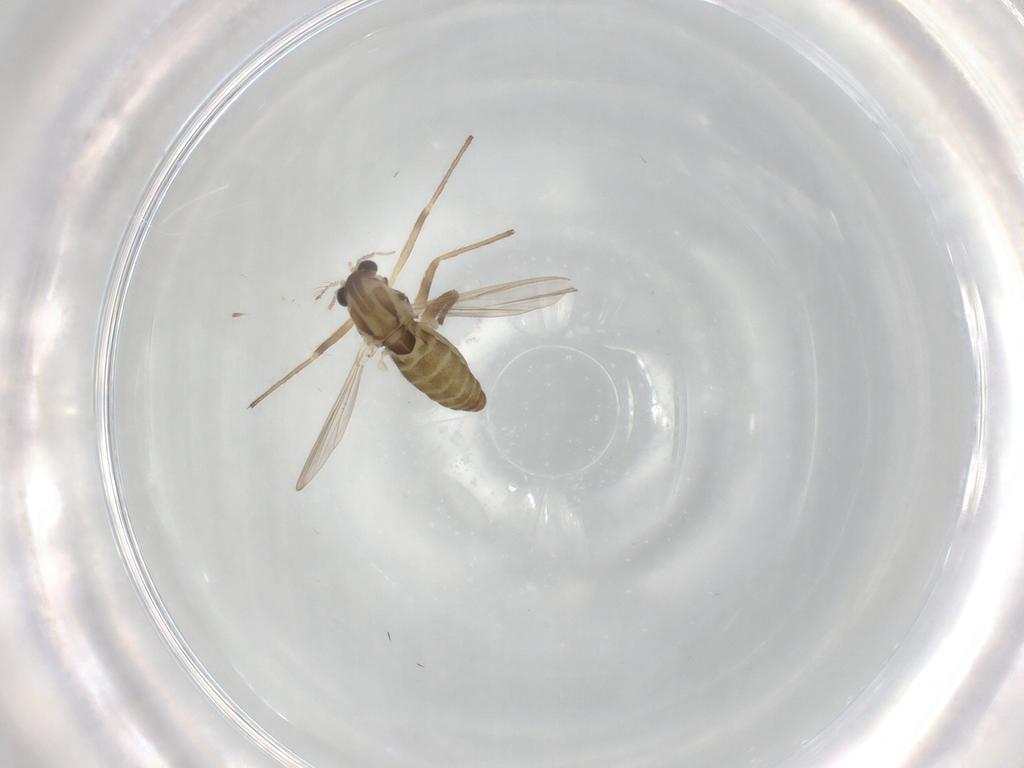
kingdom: Animalia
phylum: Arthropoda
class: Insecta
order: Diptera
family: Chironomidae
